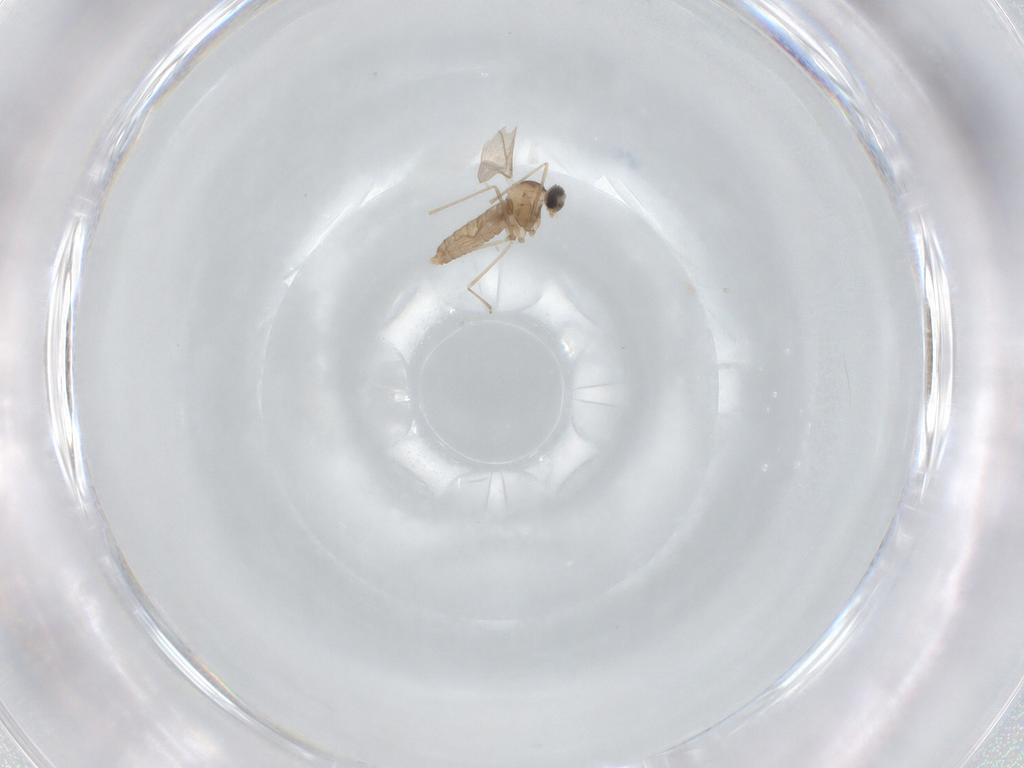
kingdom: Animalia
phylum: Arthropoda
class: Insecta
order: Diptera
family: Cecidomyiidae
